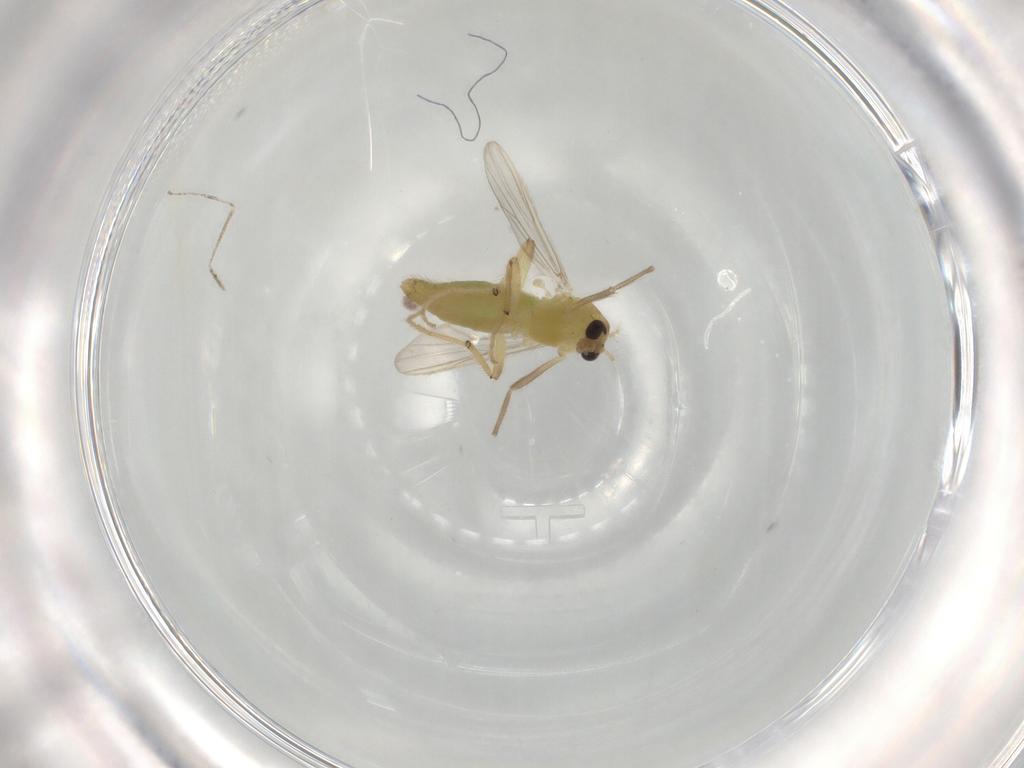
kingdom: Animalia
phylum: Arthropoda
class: Insecta
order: Diptera
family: Chironomidae
